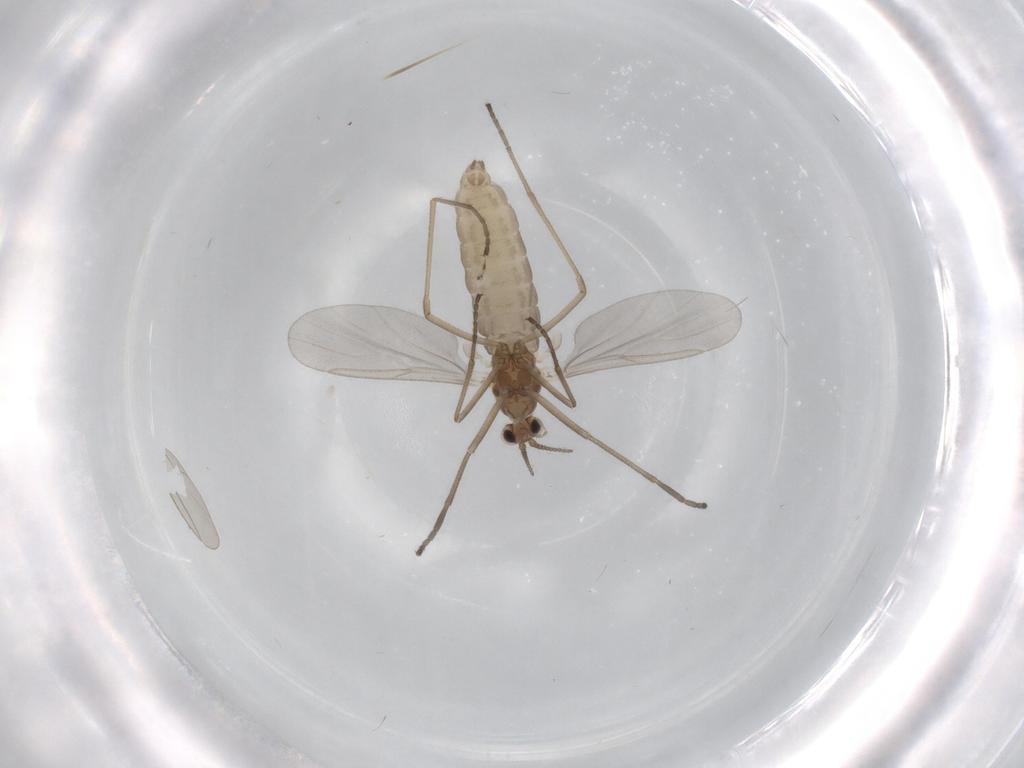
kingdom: Animalia
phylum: Arthropoda
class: Insecta
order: Diptera
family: Cecidomyiidae
